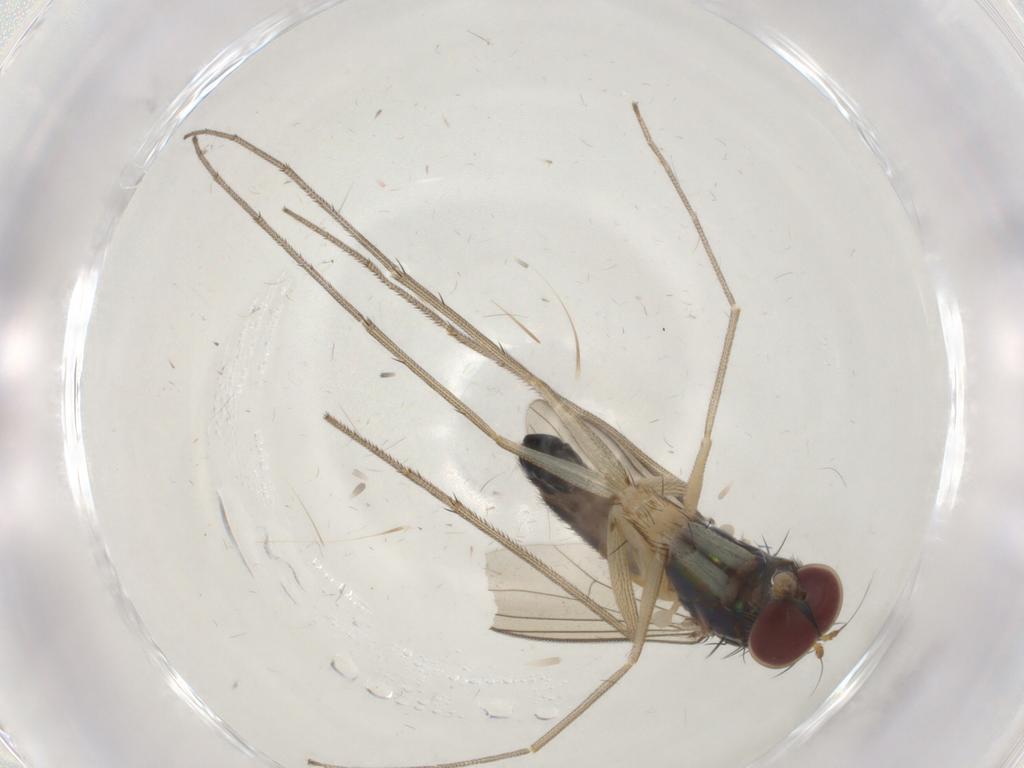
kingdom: Animalia
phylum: Arthropoda
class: Insecta
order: Diptera
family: Dolichopodidae
